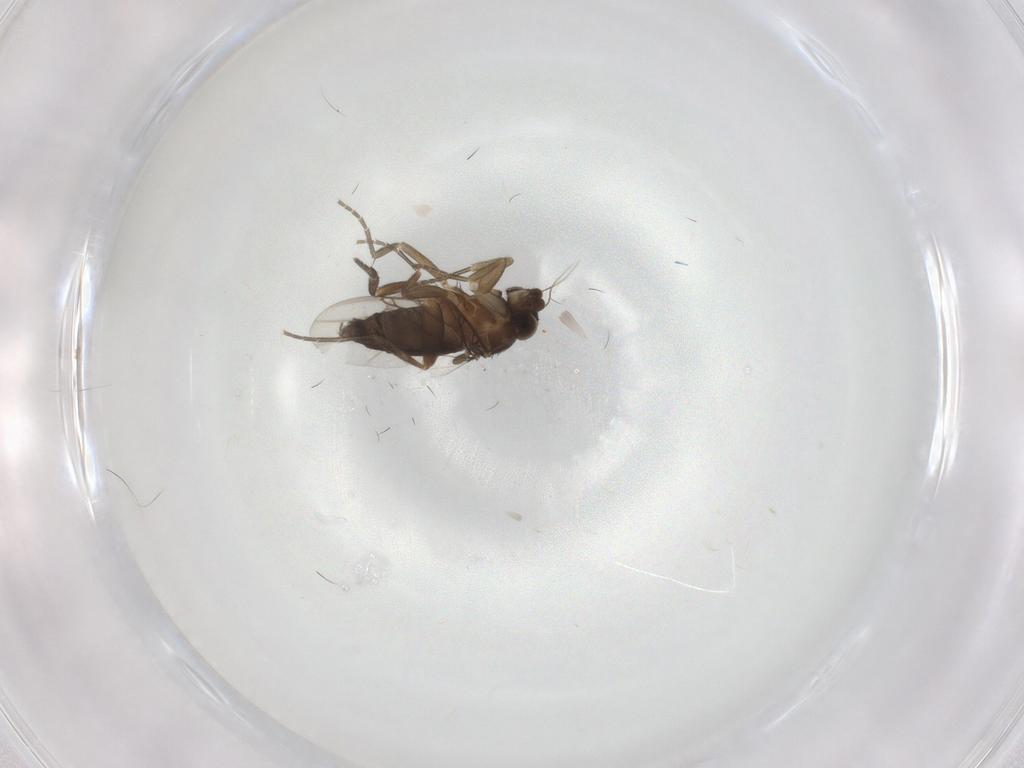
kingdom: Animalia
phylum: Arthropoda
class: Insecta
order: Diptera
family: Phoridae
